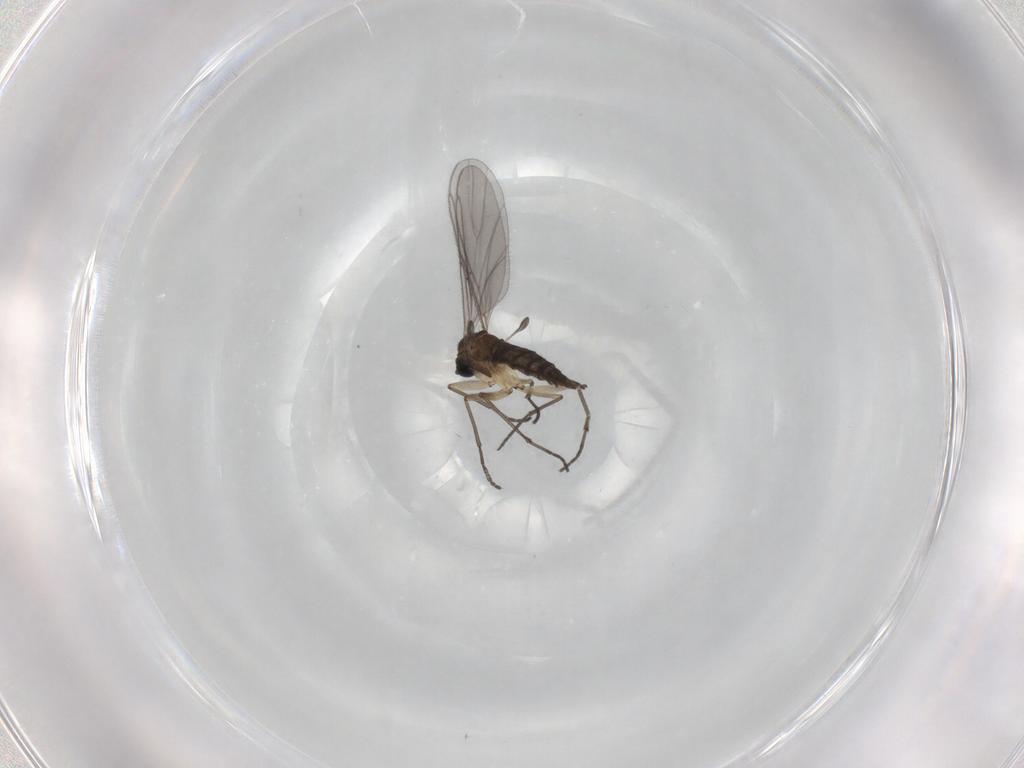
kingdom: Animalia
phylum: Arthropoda
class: Insecta
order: Diptera
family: Sciaridae
